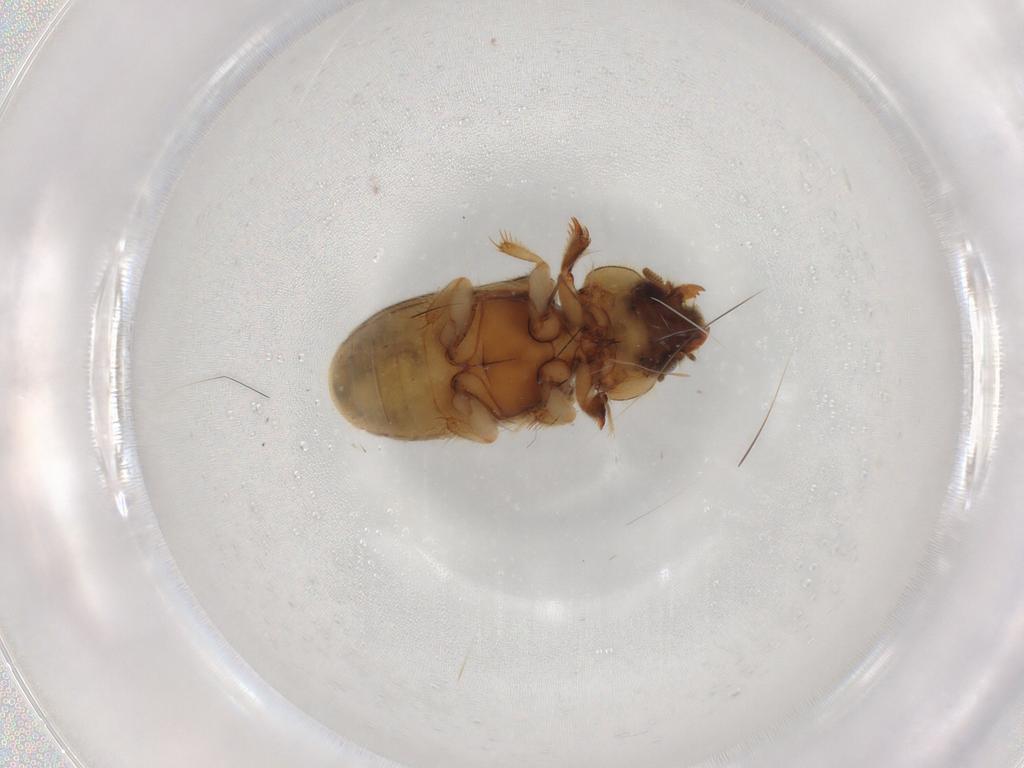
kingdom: Animalia
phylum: Arthropoda
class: Insecta
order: Coleoptera
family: Heteroceridae
